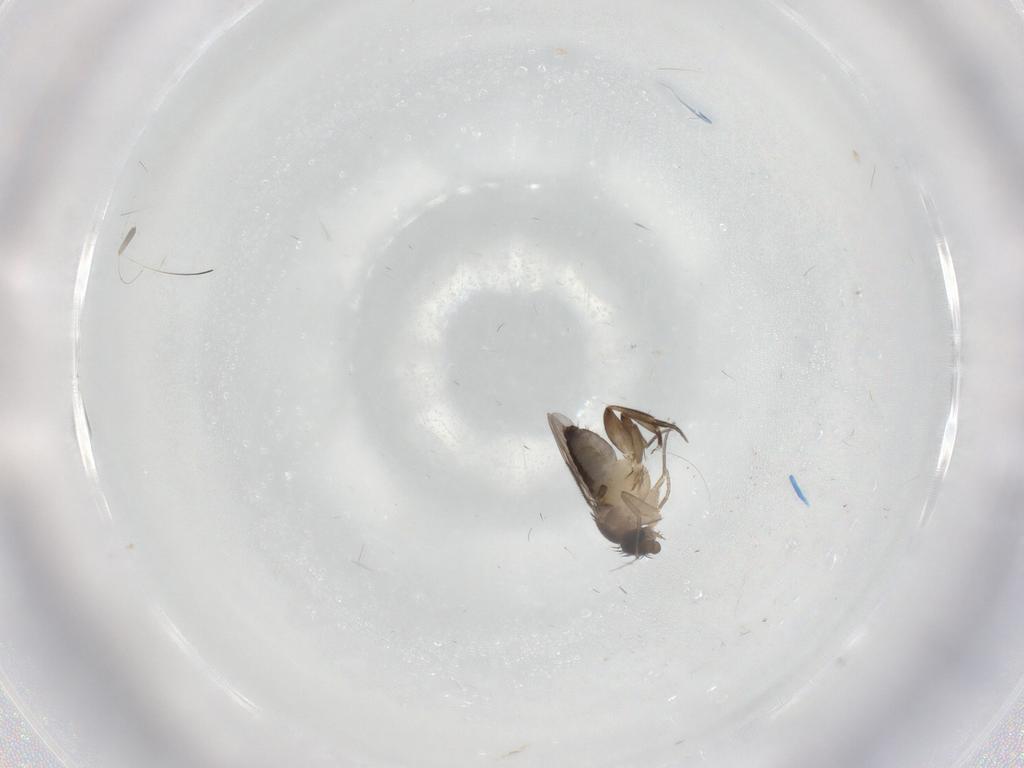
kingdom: Animalia
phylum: Arthropoda
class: Insecta
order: Diptera
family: Phoridae
